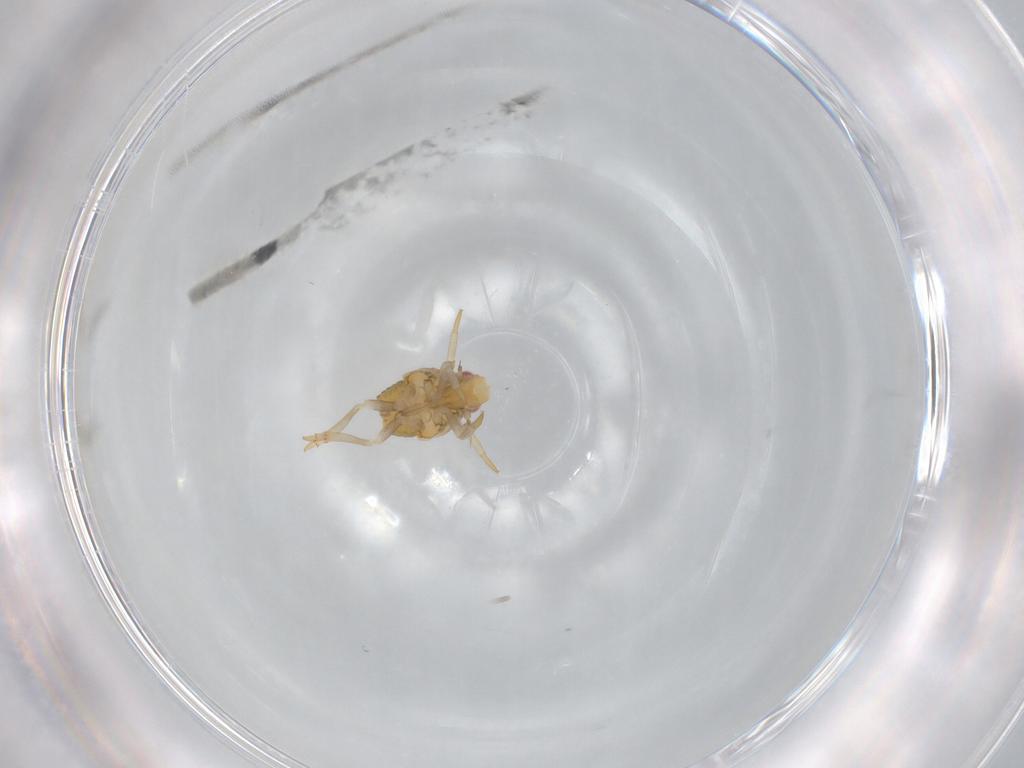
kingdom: Animalia
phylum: Arthropoda
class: Insecta
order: Hemiptera
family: Flatidae
